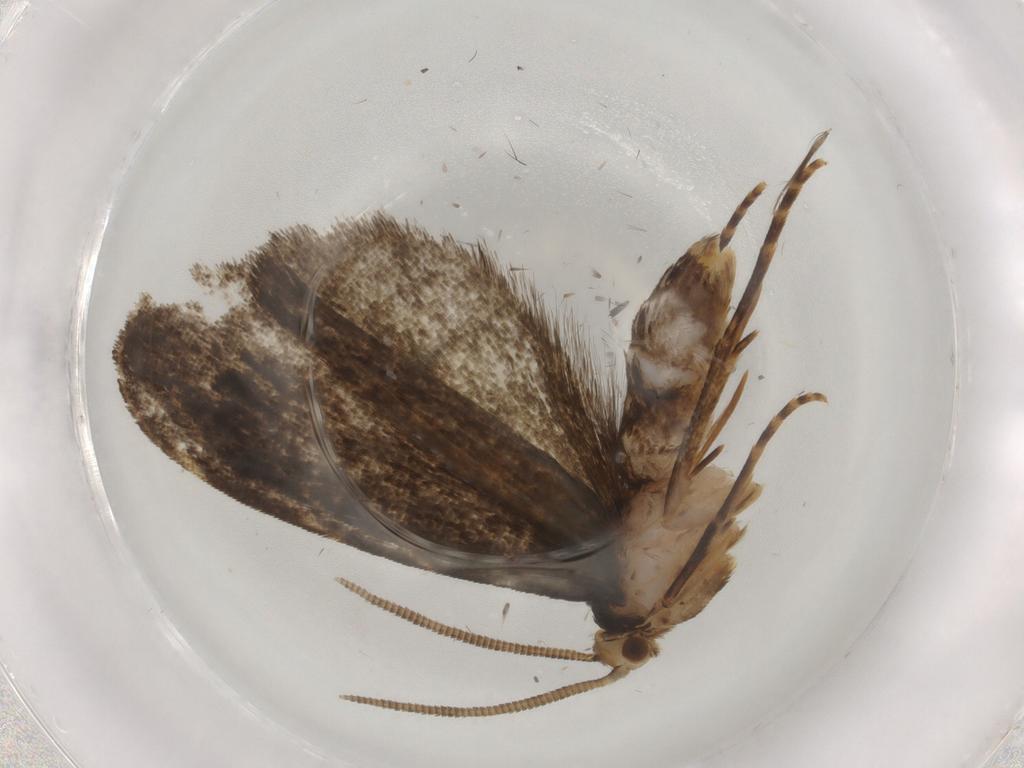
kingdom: Animalia
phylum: Arthropoda
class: Insecta
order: Lepidoptera
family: Dryadaulidae
